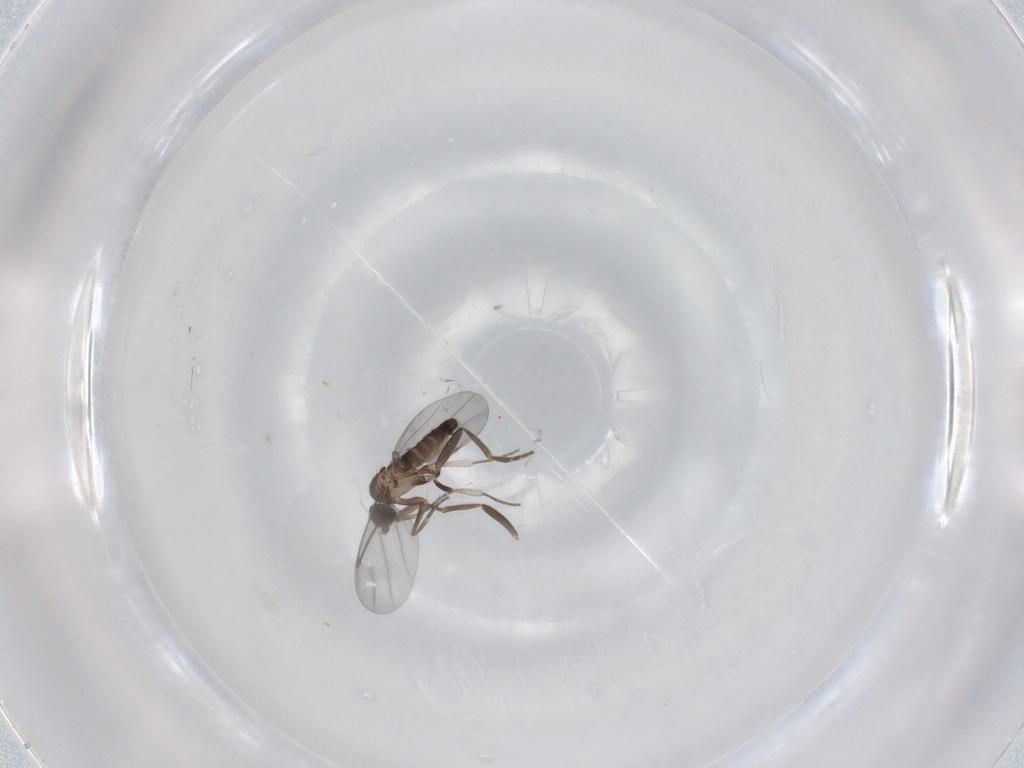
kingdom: Animalia
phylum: Arthropoda
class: Insecta
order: Diptera
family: Phoridae
